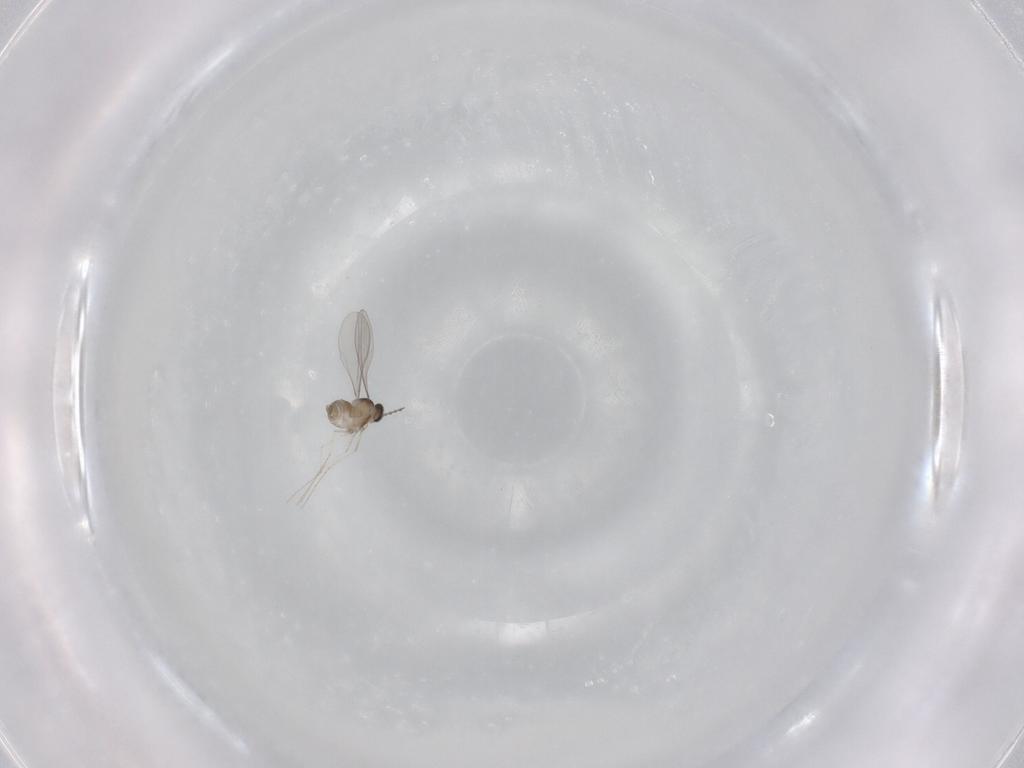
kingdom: Animalia
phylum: Arthropoda
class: Insecta
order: Diptera
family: Cecidomyiidae
